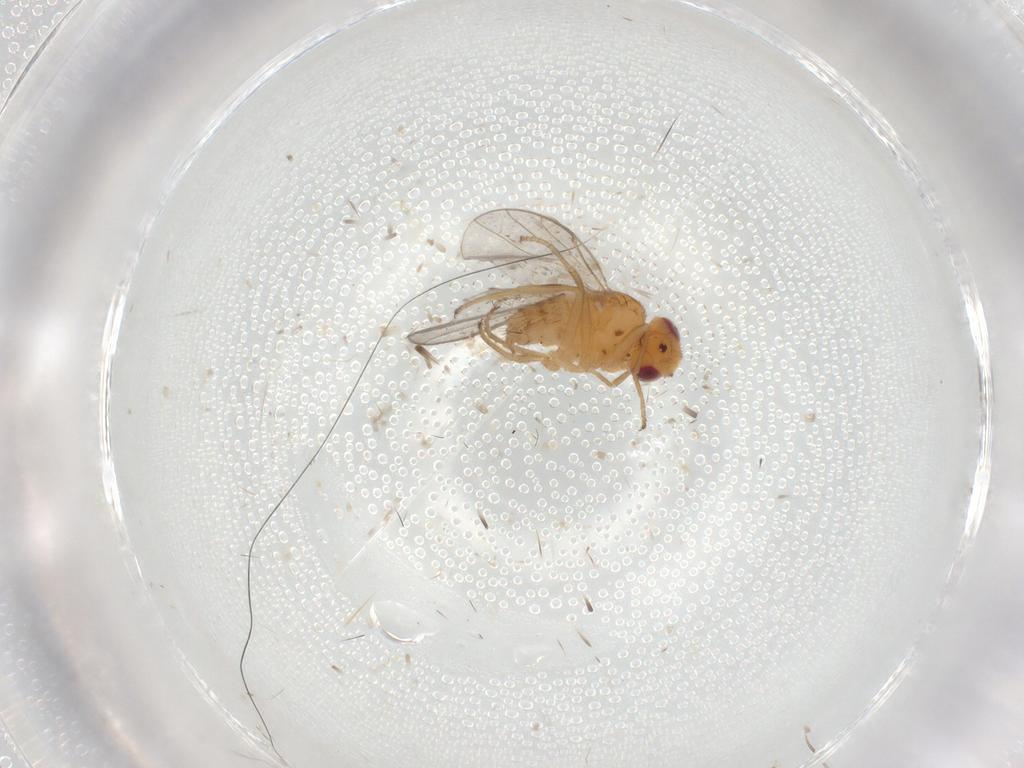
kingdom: Animalia
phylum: Arthropoda
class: Insecta
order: Diptera
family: Chloropidae
